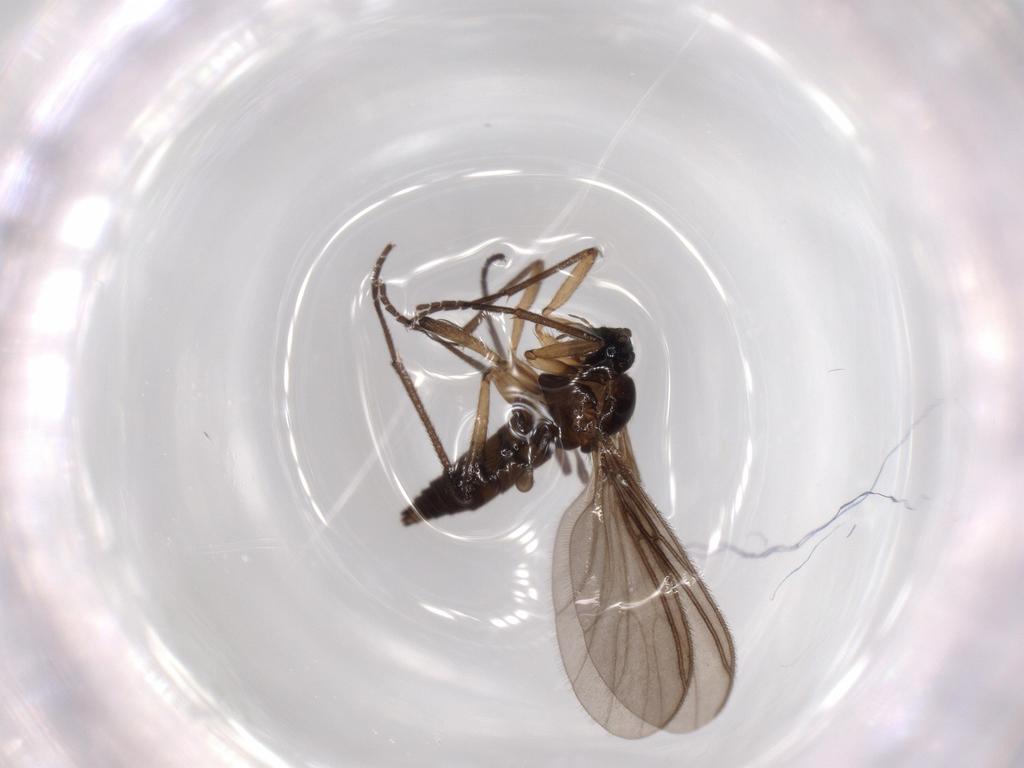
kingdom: Animalia
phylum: Arthropoda
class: Insecta
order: Diptera
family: Sciaridae
